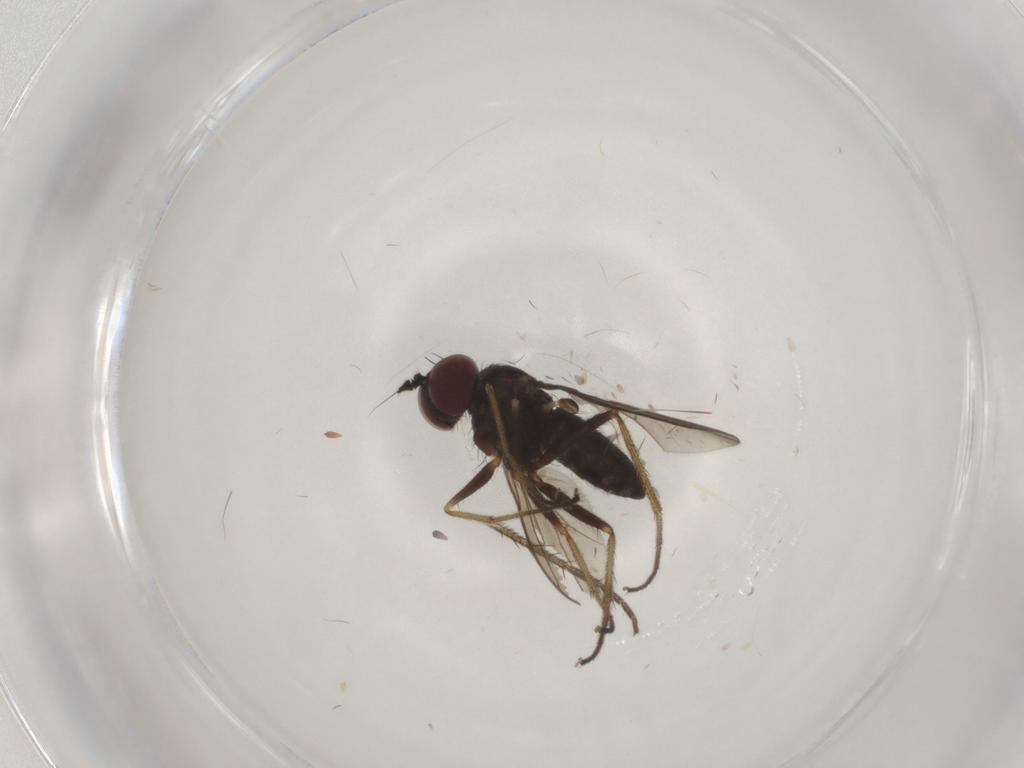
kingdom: Animalia
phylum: Arthropoda
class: Insecta
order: Diptera
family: Dolichopodidae
